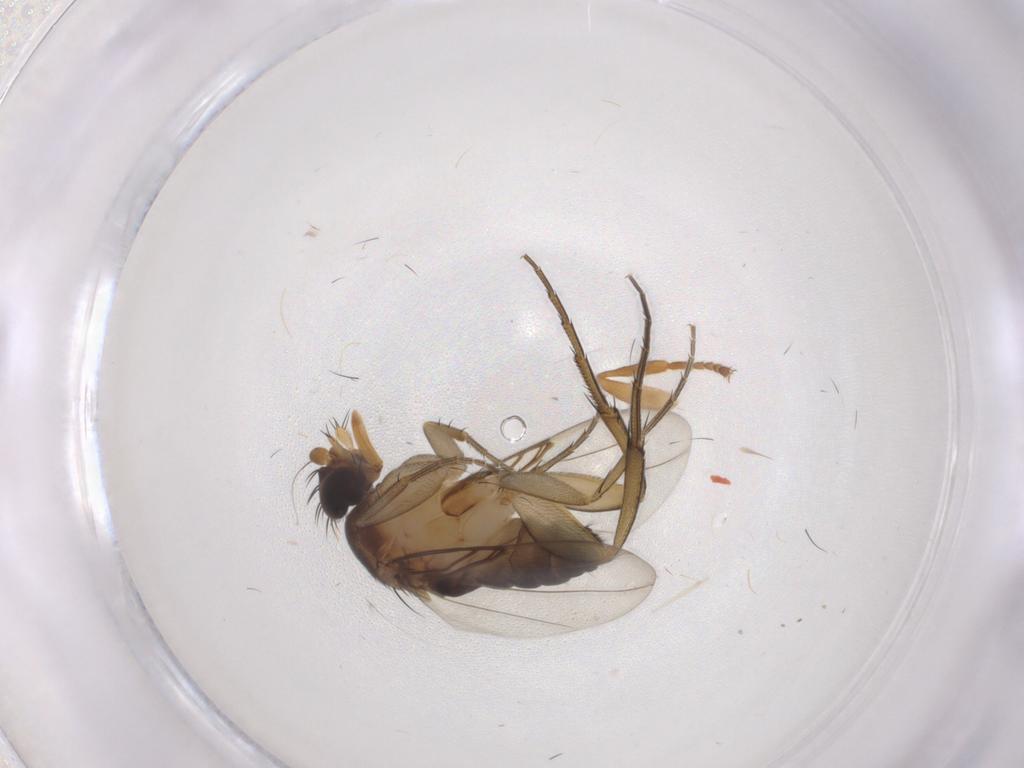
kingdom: Animalia
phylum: Arthropoda
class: Insecta
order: Diptera
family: Phoridae
